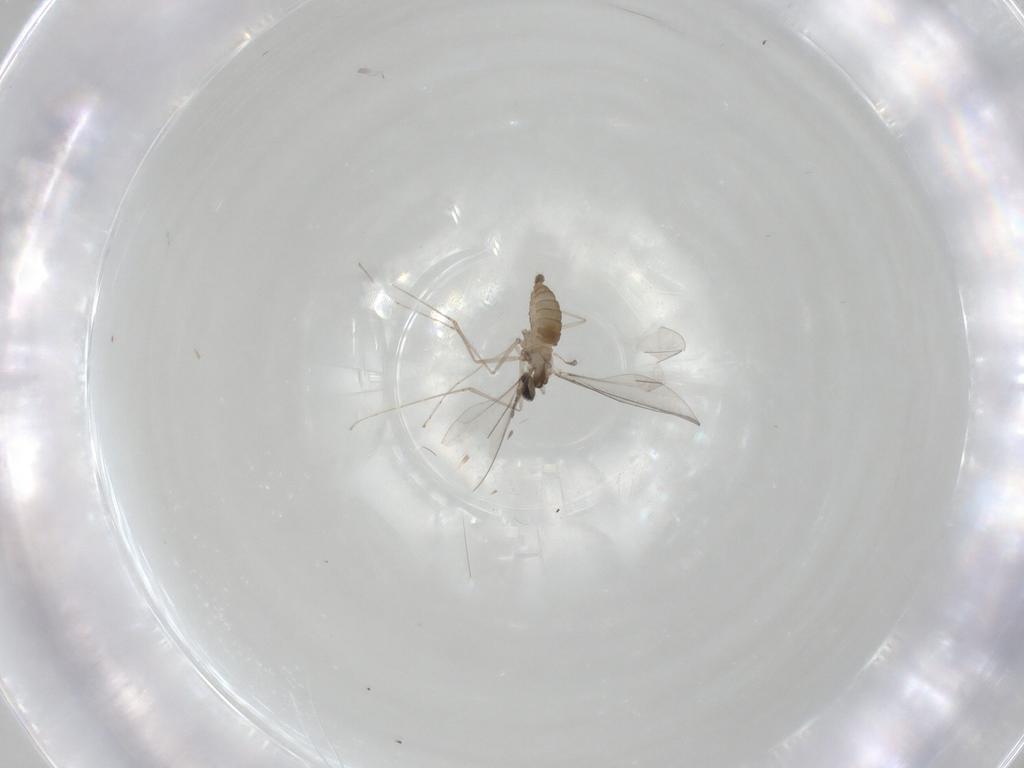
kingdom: Animalia
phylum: Arthropoda
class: Insecta
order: Diptera
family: Cecidomyiidae
